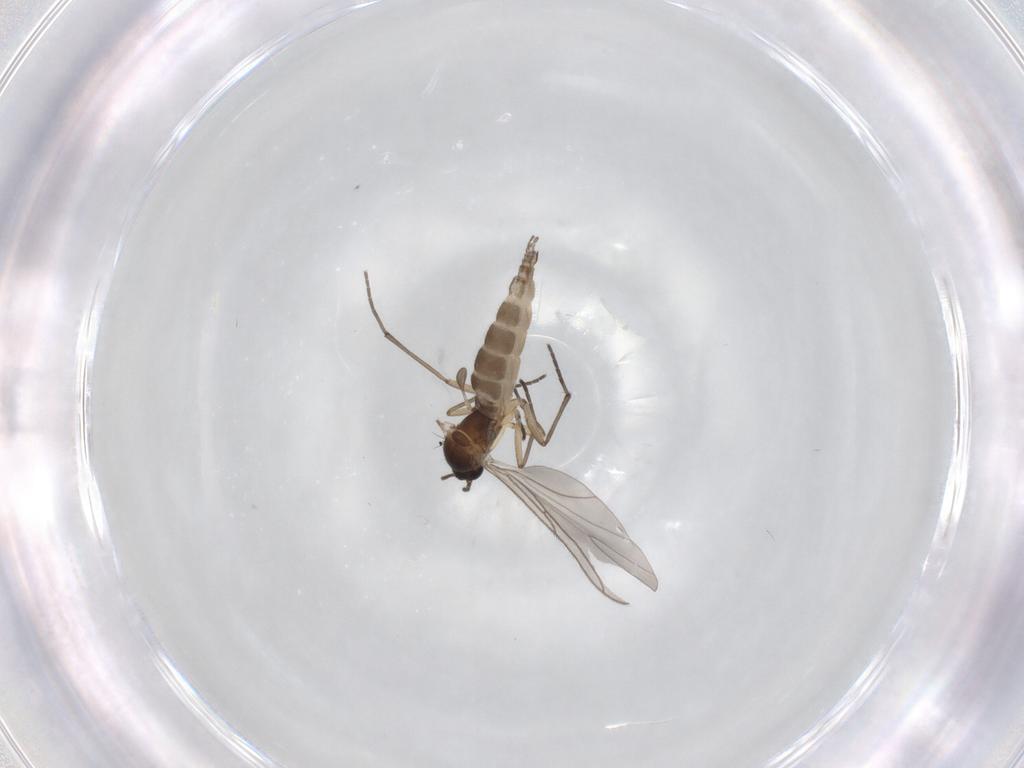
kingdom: Animalia
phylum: Arthropoda
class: Insecta
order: Diptera
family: Sciaridae
